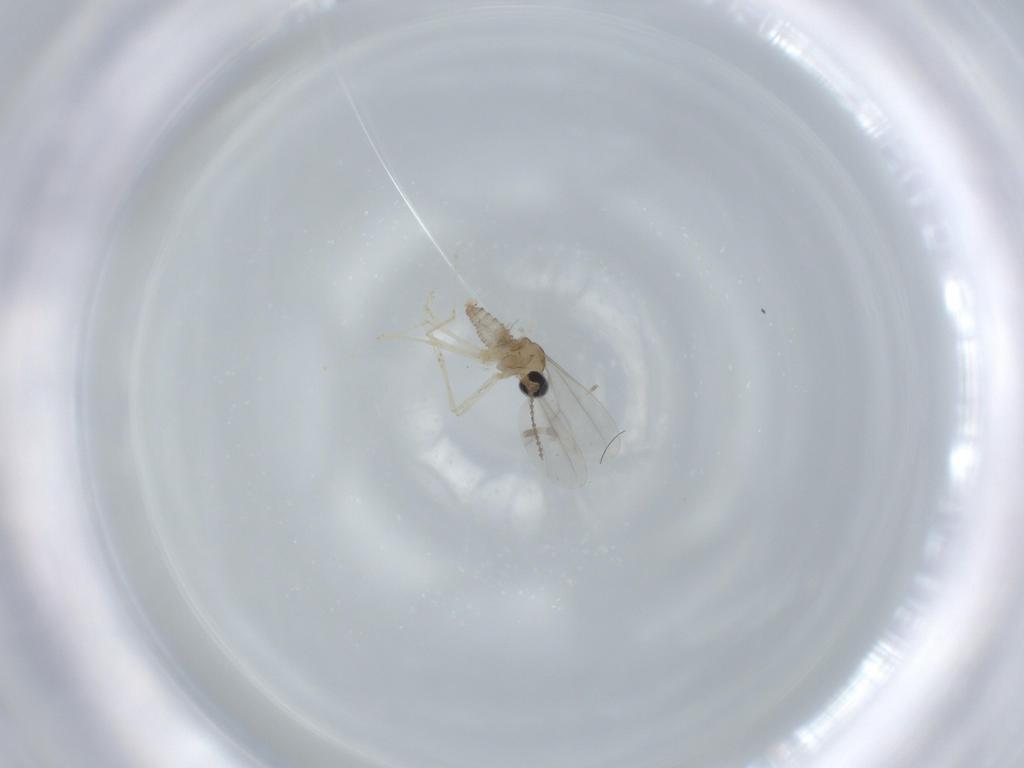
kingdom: Animalia
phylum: Arthropoda
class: Insecta
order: Diptera
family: Cecidomyiidae
